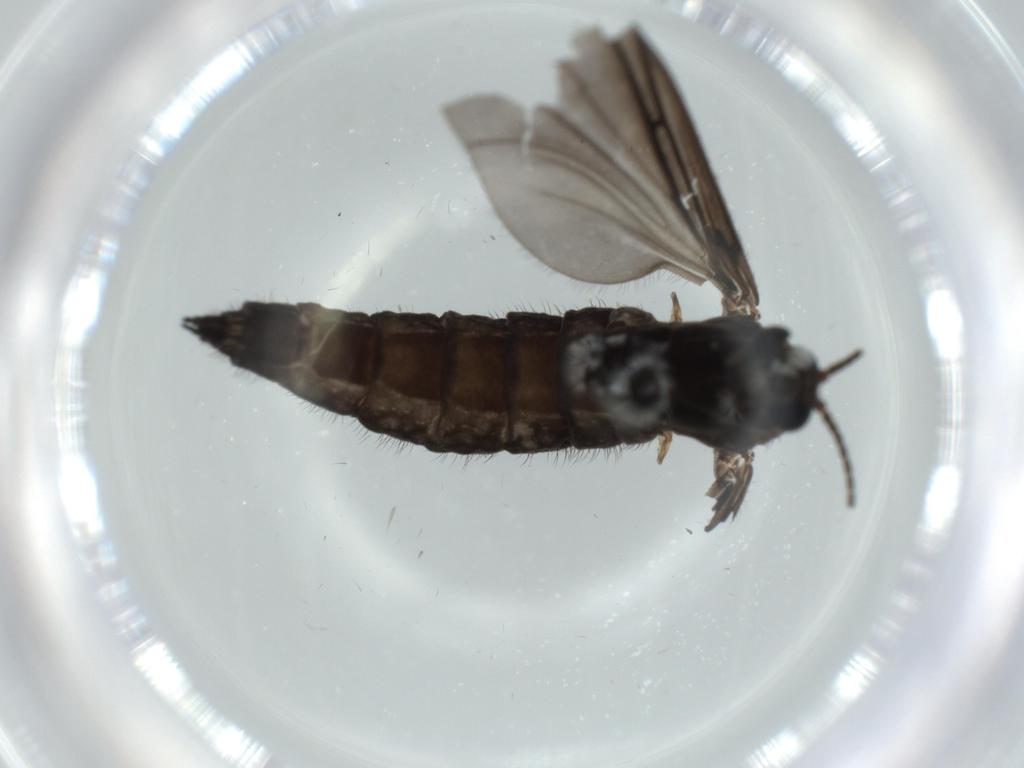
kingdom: Animalia
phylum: Arthropoda
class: Insecta
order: Diptera
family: Sciaridae
